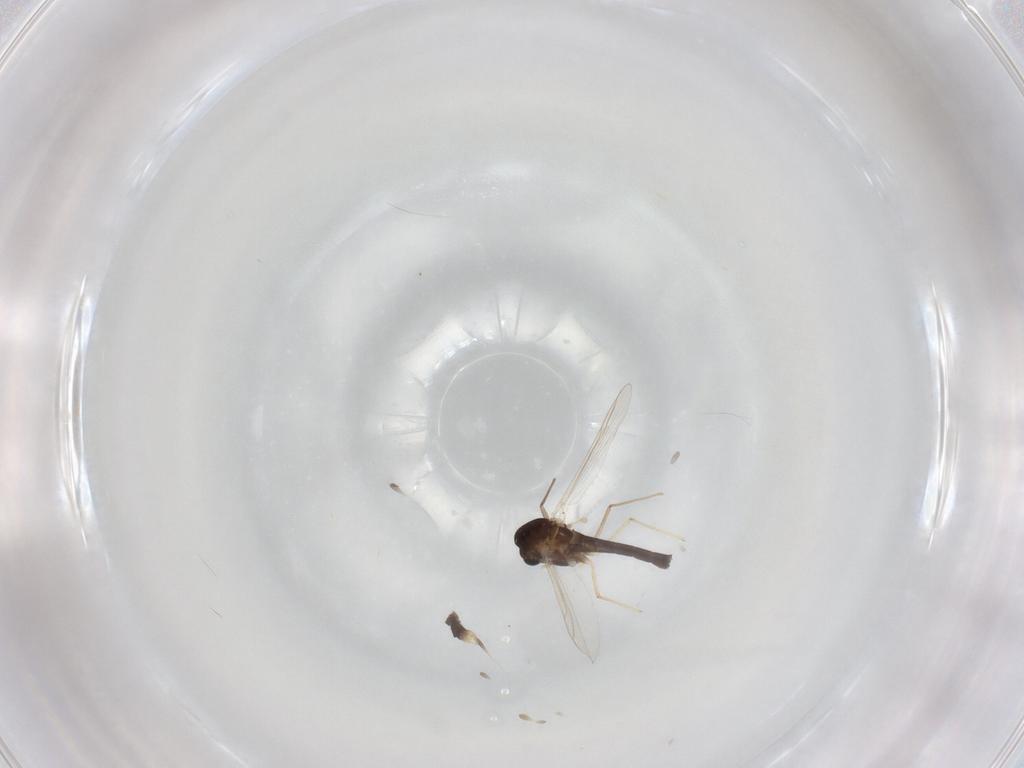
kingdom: Animalia
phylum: Arthropoda
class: Insecta
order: Diptera
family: Chironomidae
